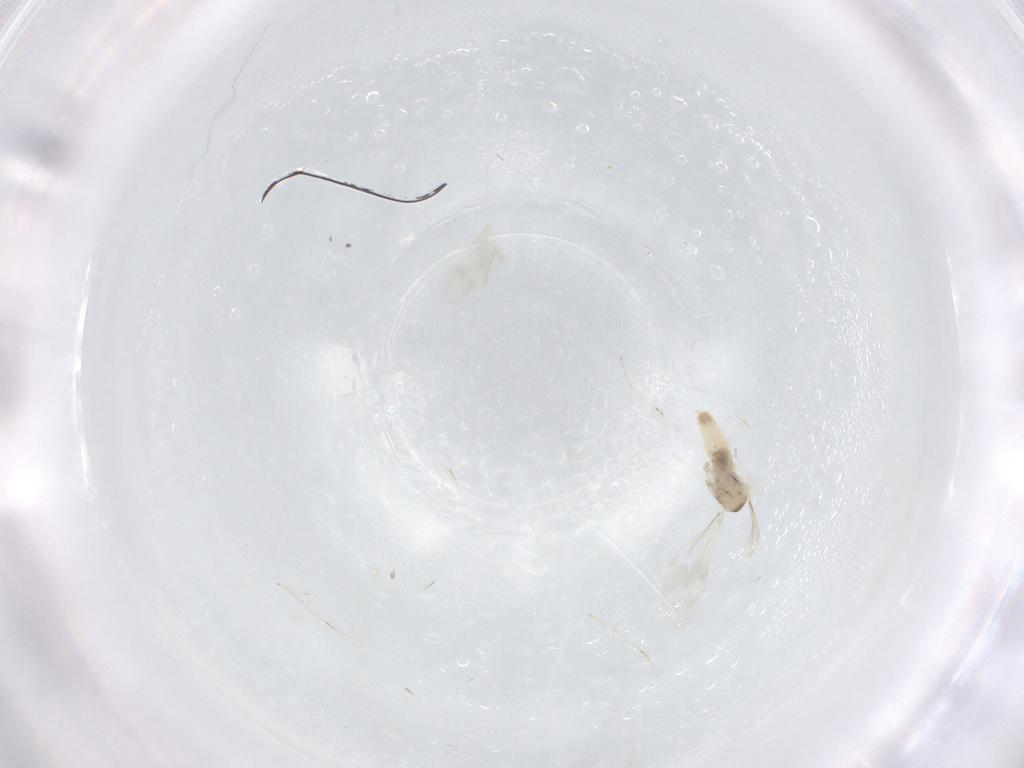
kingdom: Animalia
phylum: Arthropoda
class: Insecta
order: Diptera
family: Cecidomyiidae
